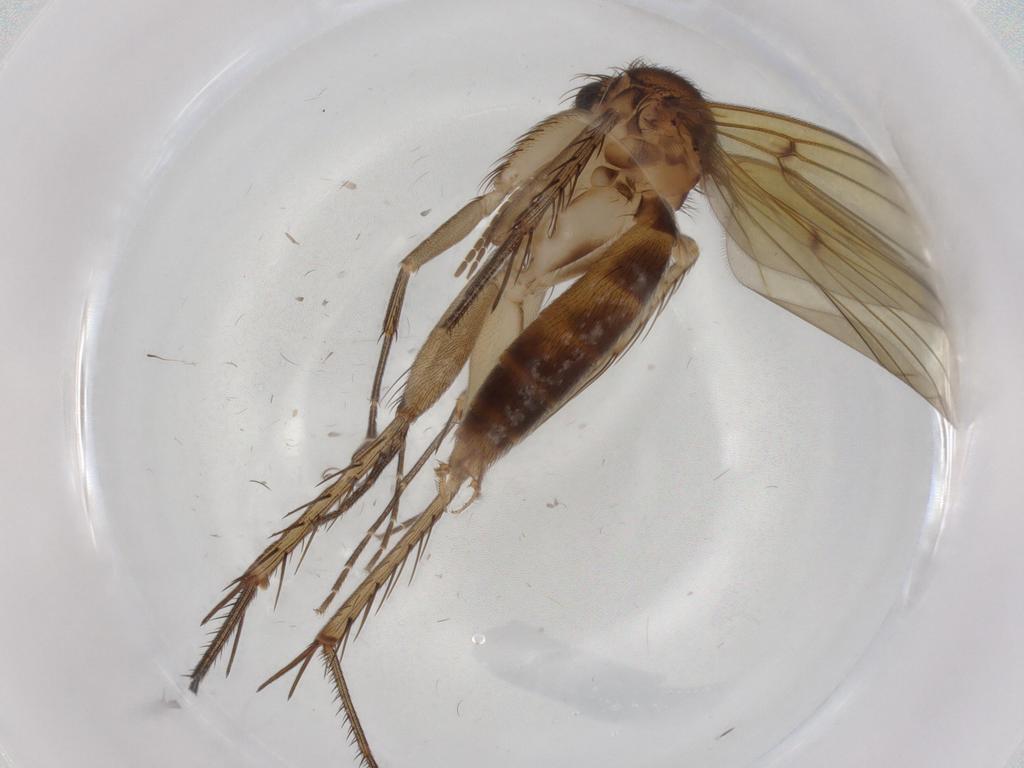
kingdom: Animalia
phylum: Arthropoda
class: Insecta
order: Diptera
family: Mycetophilidae
